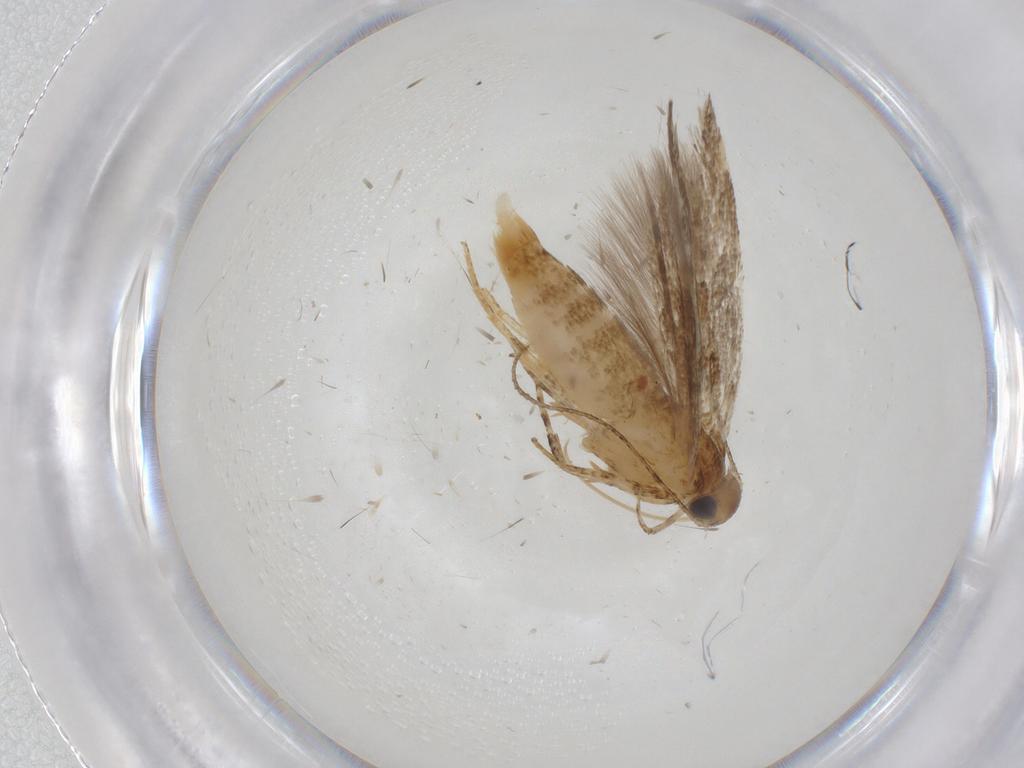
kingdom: Animalia
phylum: Arthropoda
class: Insecta
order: Lepidoptera
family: Gelechiidae
